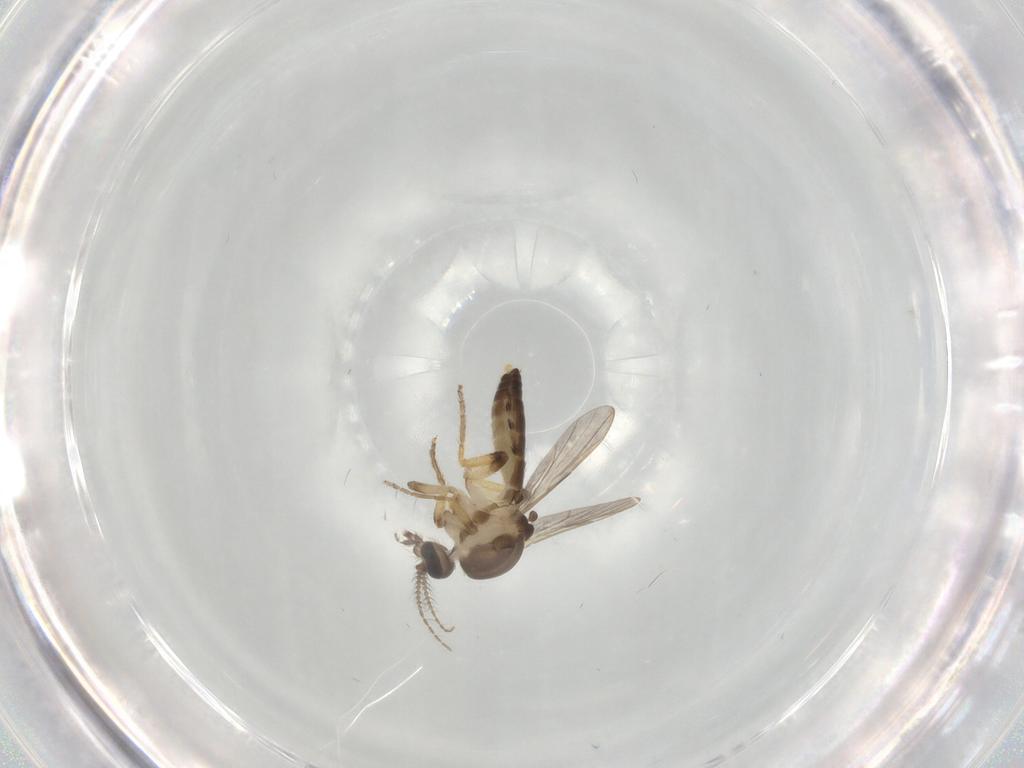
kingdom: Animalia
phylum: Arthropoda
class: Insecta
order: Diptera
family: Ceratopogonidae
